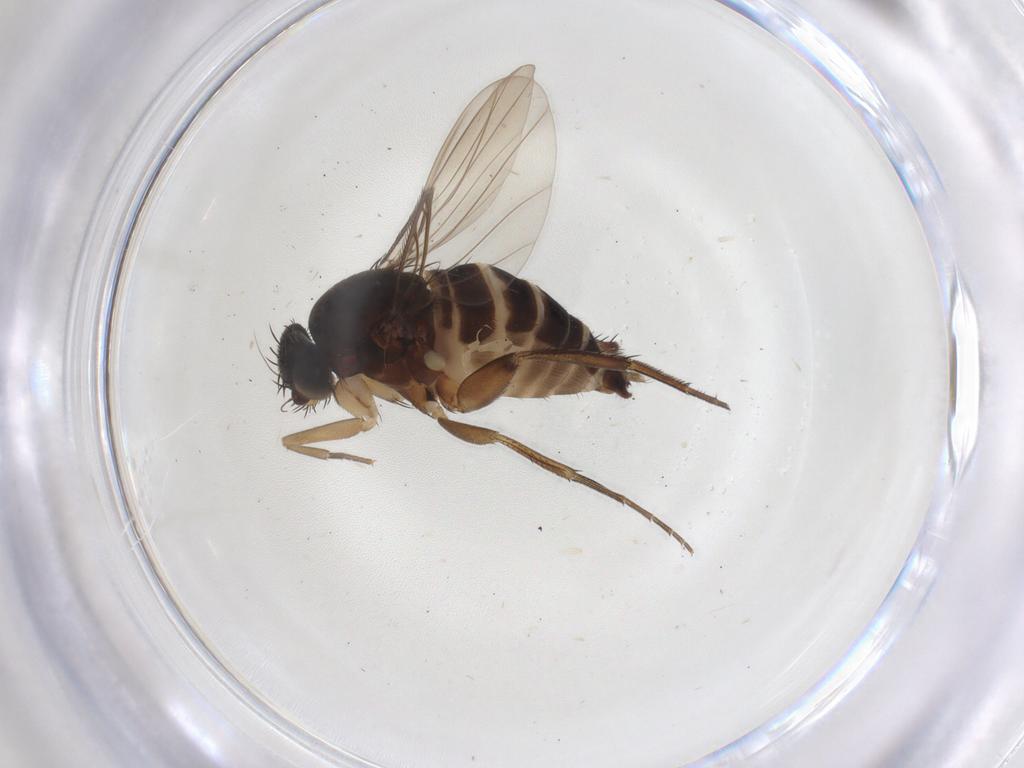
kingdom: Animalia
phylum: Arthropoda
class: Insecta
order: Diptera
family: Phoridae
